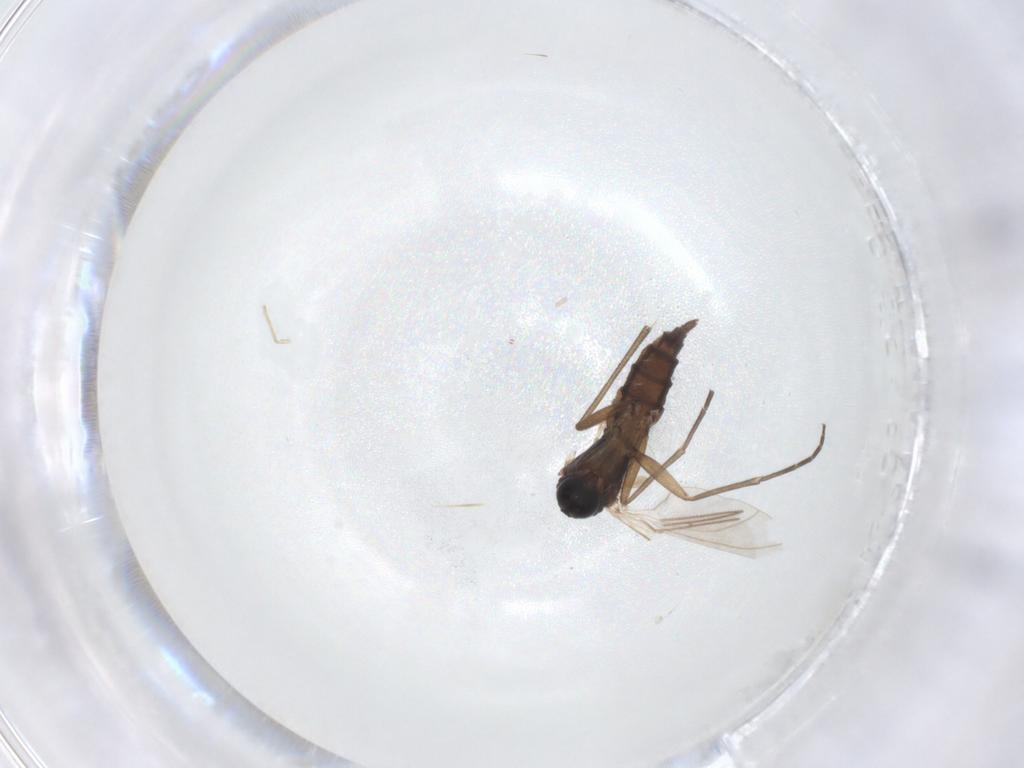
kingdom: Animalia
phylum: Arthropoda
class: Insecta
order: Diptera
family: Sciaridae
